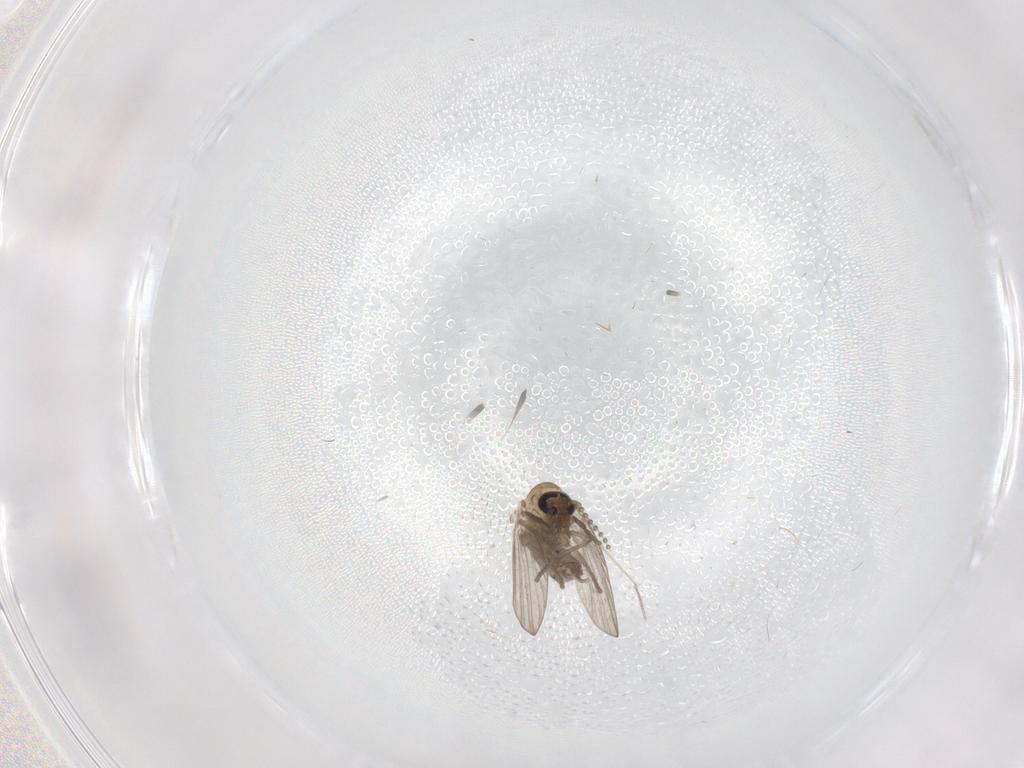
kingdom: Animalia
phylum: Arthropoda
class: Insecta
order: Diptera
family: Psychodidae
